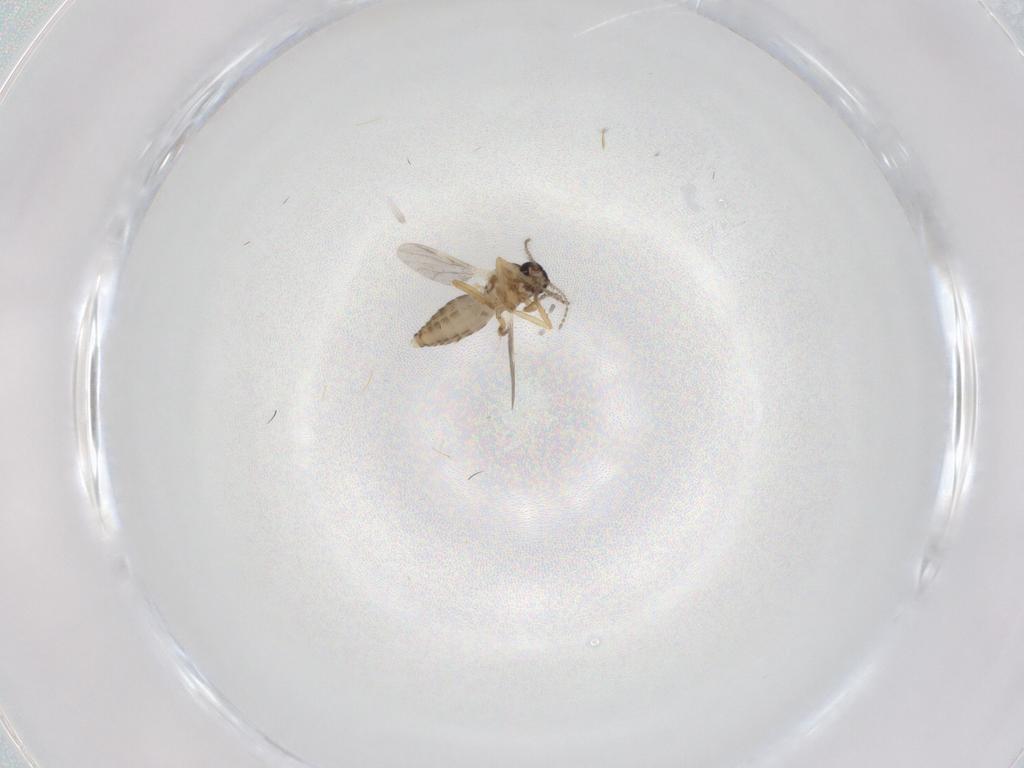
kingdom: Animalia
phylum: Arthropoda
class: Insecta
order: Diptera
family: Ceratopogonidae
